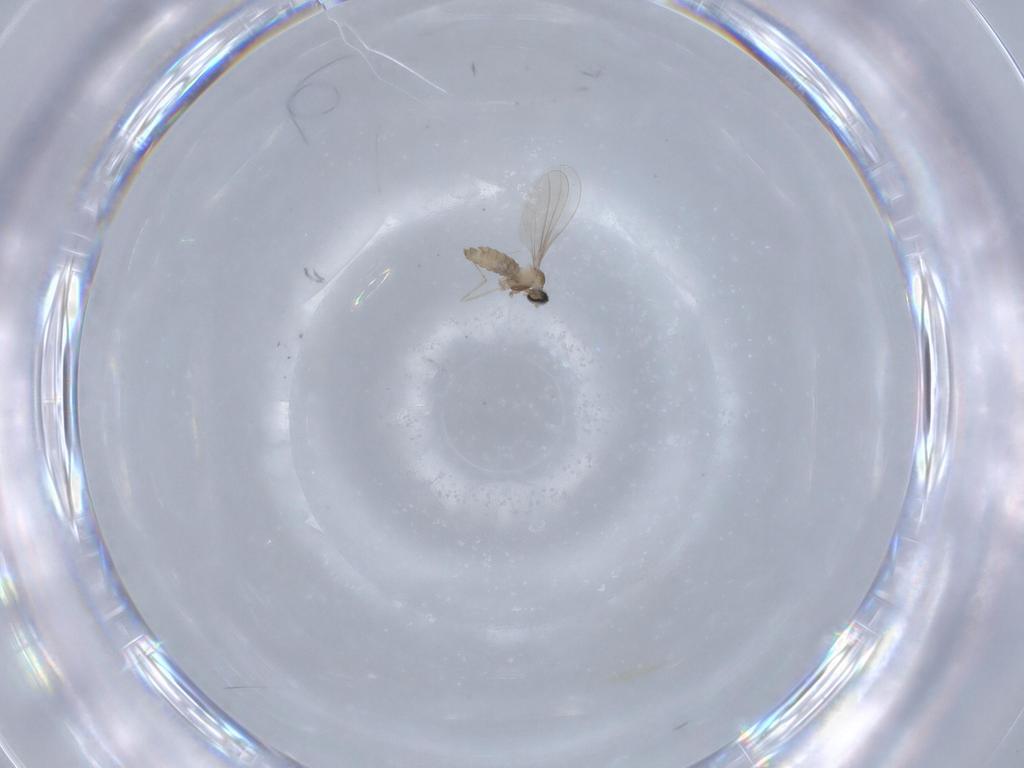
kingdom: Animalia
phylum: Arthropoda
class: Insecta
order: Diptera
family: Cecidomyiidae
